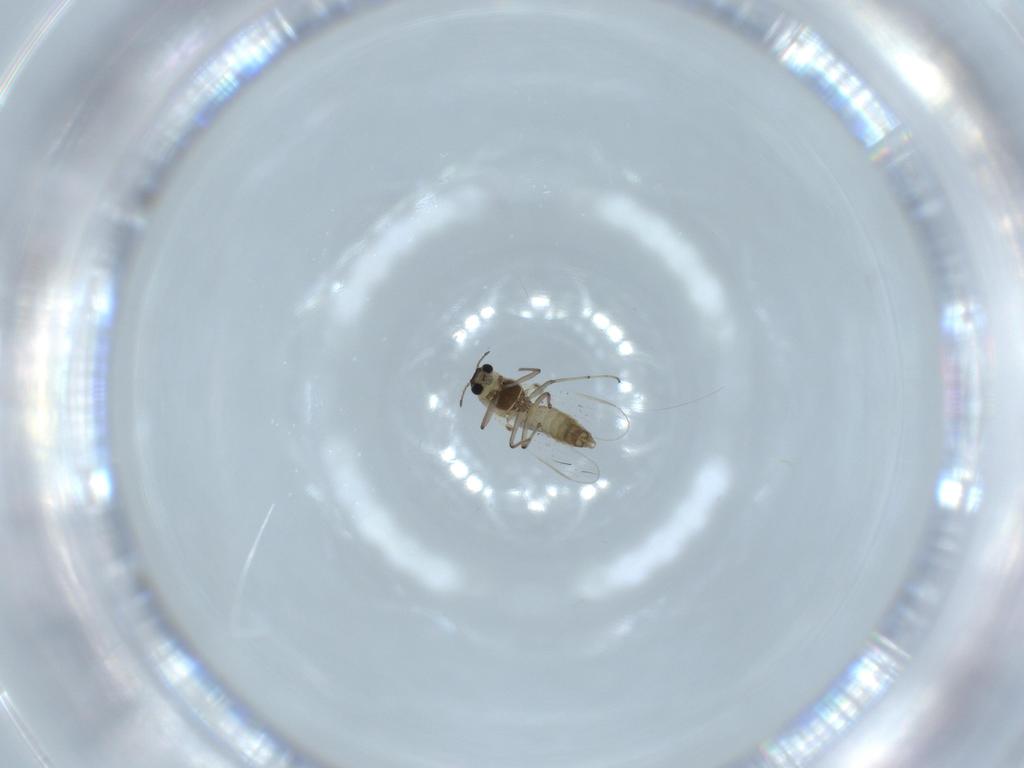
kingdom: Animalia
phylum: Arthropoda
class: Insecta
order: Diptera
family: Chironomidae
